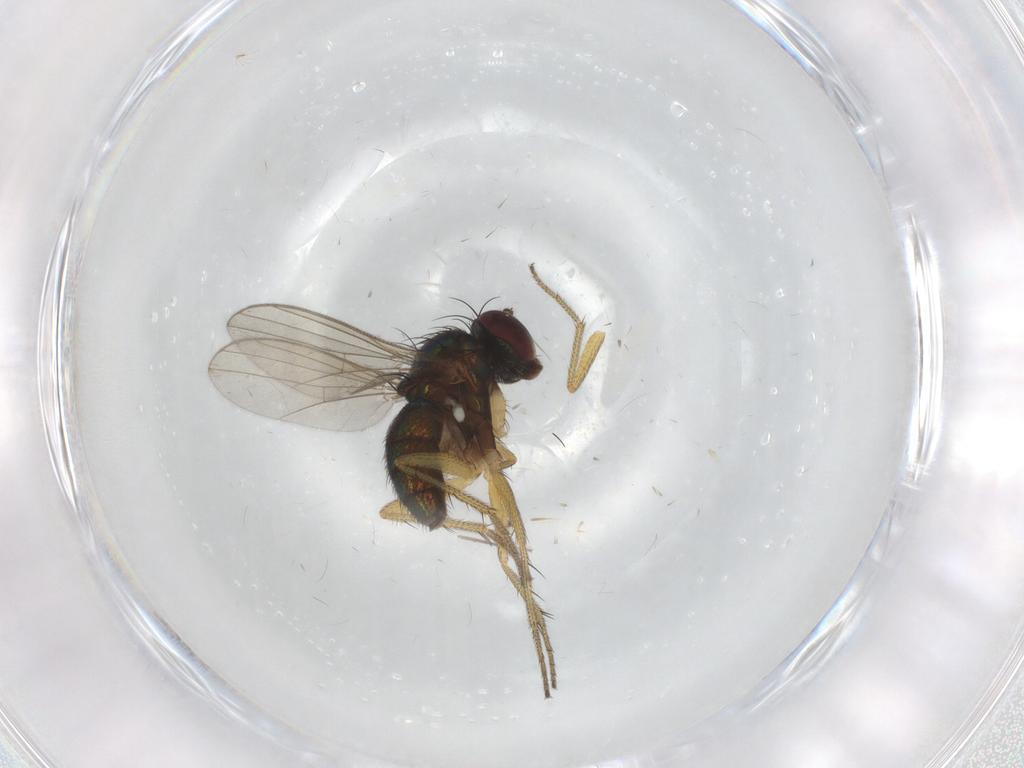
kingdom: Animalia
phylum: Arthropoda
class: Insecta
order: Diptera
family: Chironomidae
